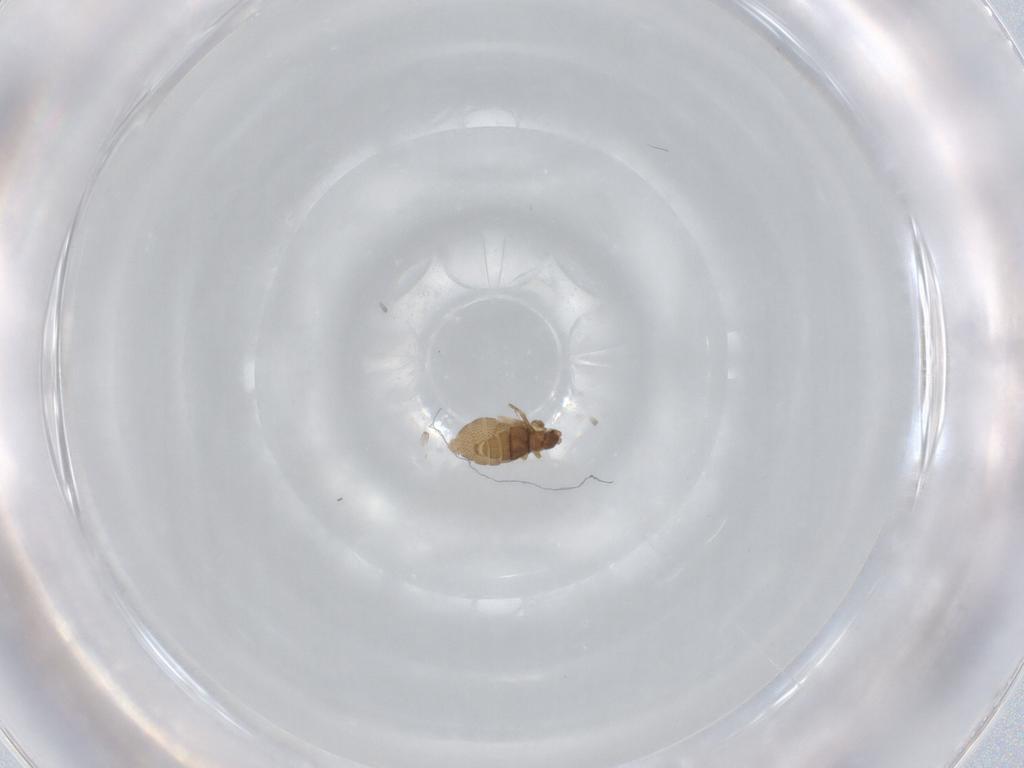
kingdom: Animalia
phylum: Arthropoda
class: Insecta
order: Diptera
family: Phoridae
